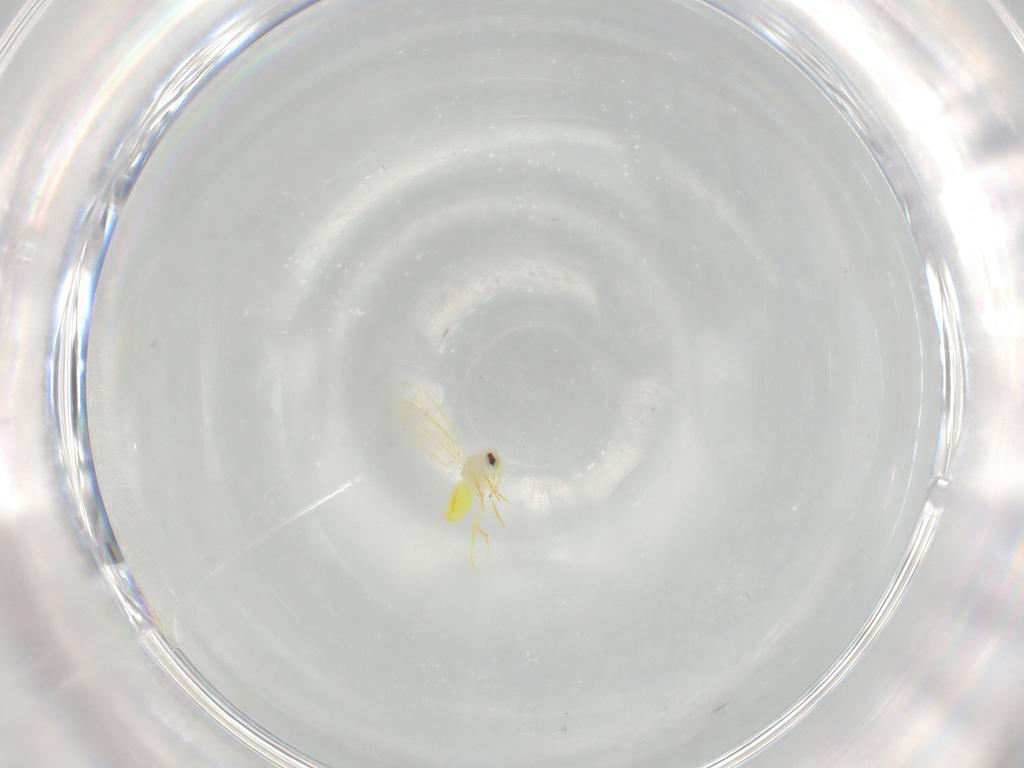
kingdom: Animalia
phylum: Arthropoda
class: Insecta
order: Hemiptera
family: Aleyrodidae
